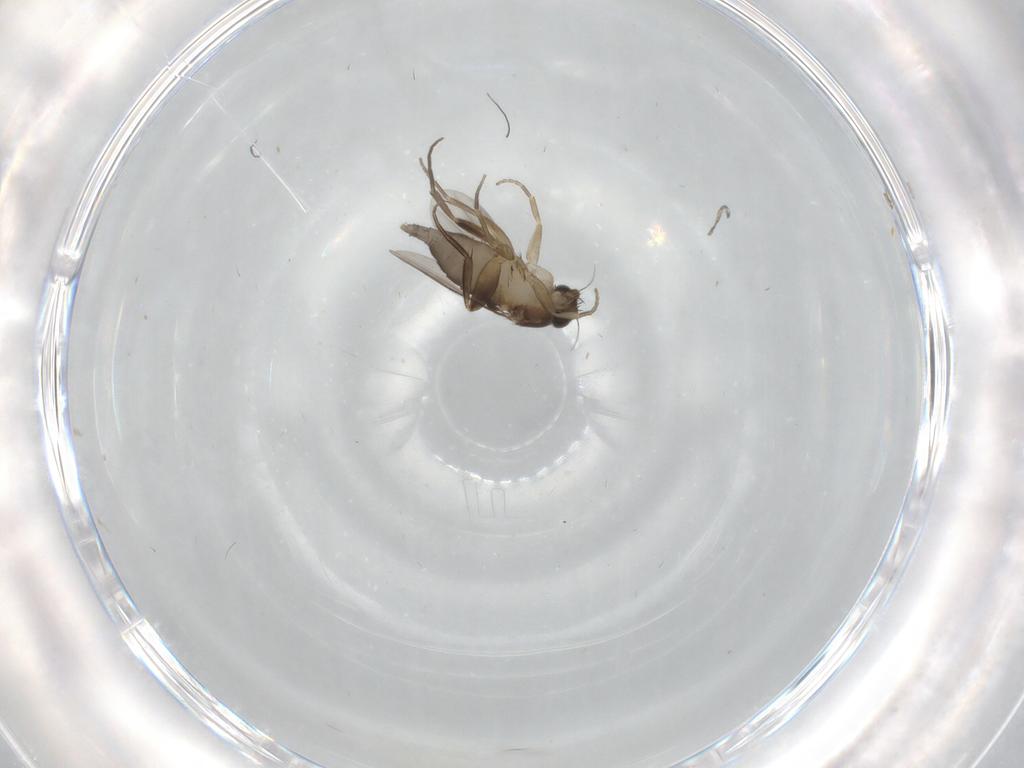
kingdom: Animalia
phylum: Arthropoda
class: Insecta
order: Diptera
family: Phoridae
